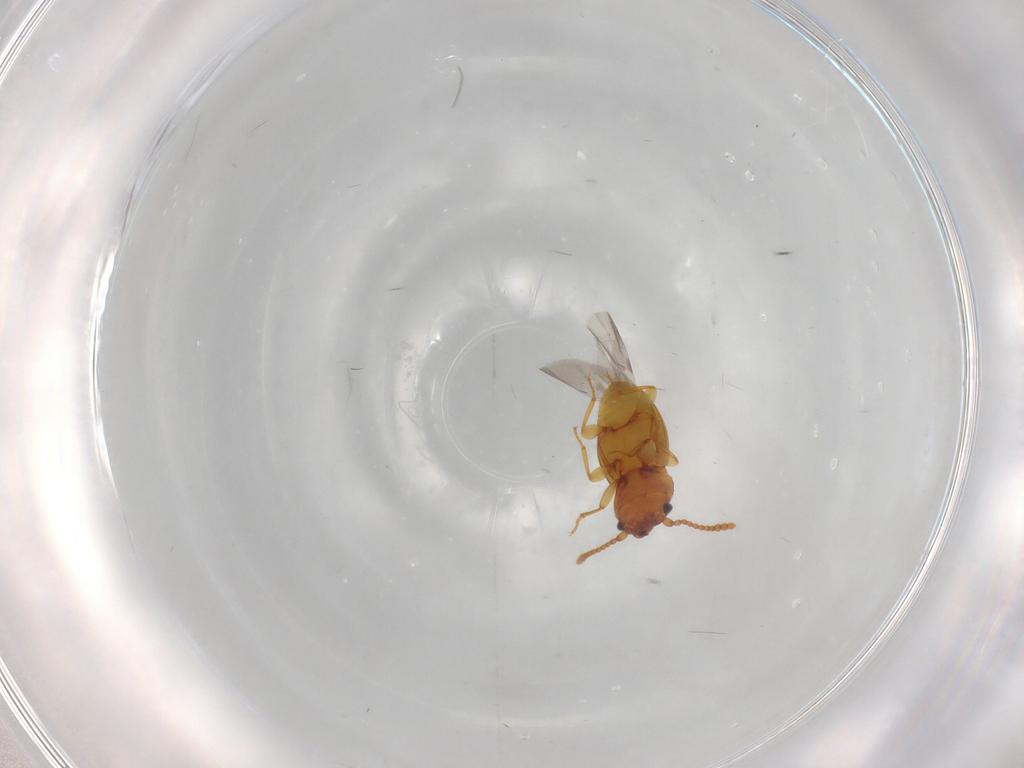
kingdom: Animalia
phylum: Arthropoda
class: Insecta
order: Coleoptera
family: Laemophloeidae
